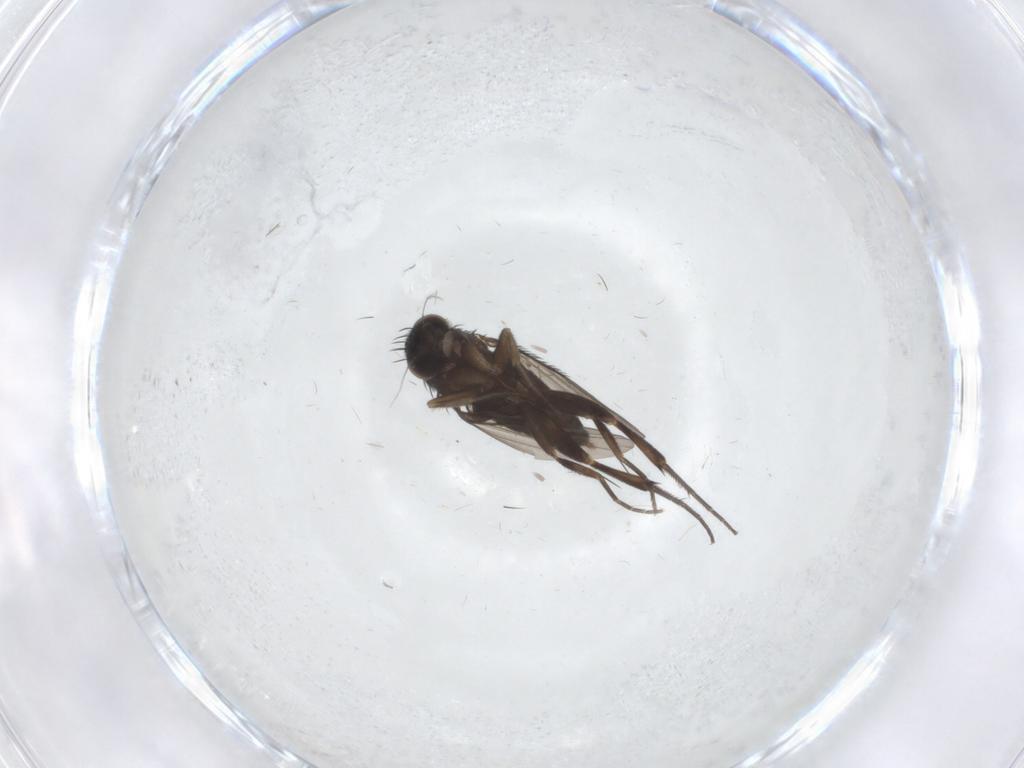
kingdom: Animalia
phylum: Arthropoda
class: Insecta
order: Diptera
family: Phoridae
